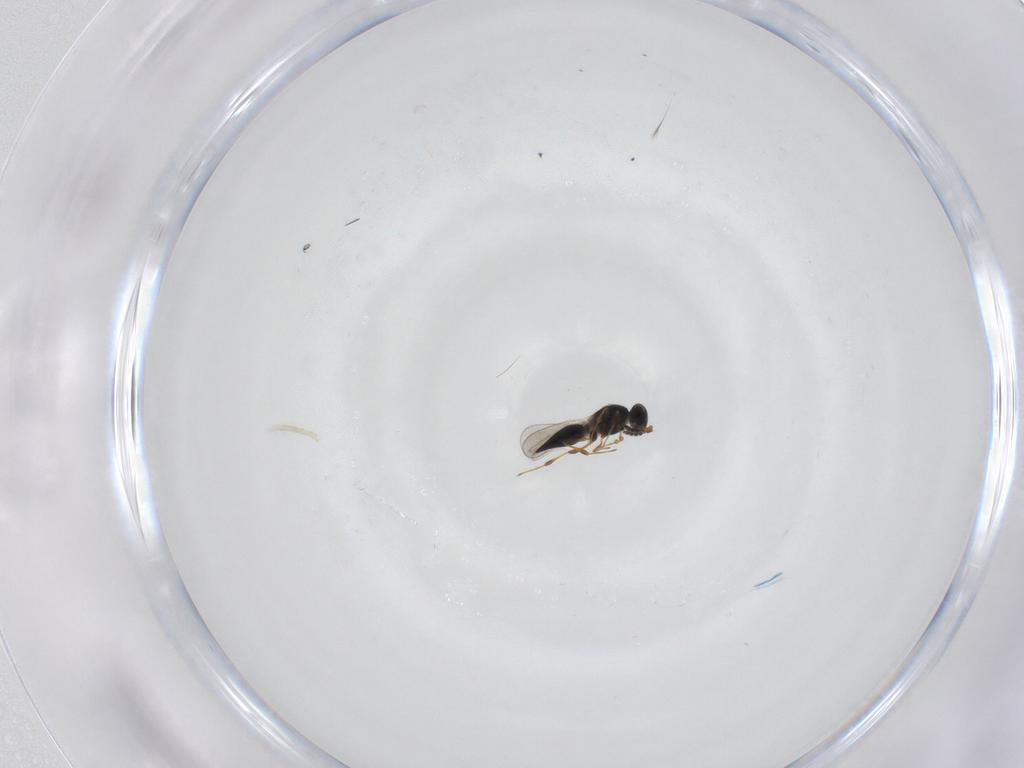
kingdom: Animalia
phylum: Arthropoda
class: Insecta
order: Hymenoptera
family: Platygastridae
